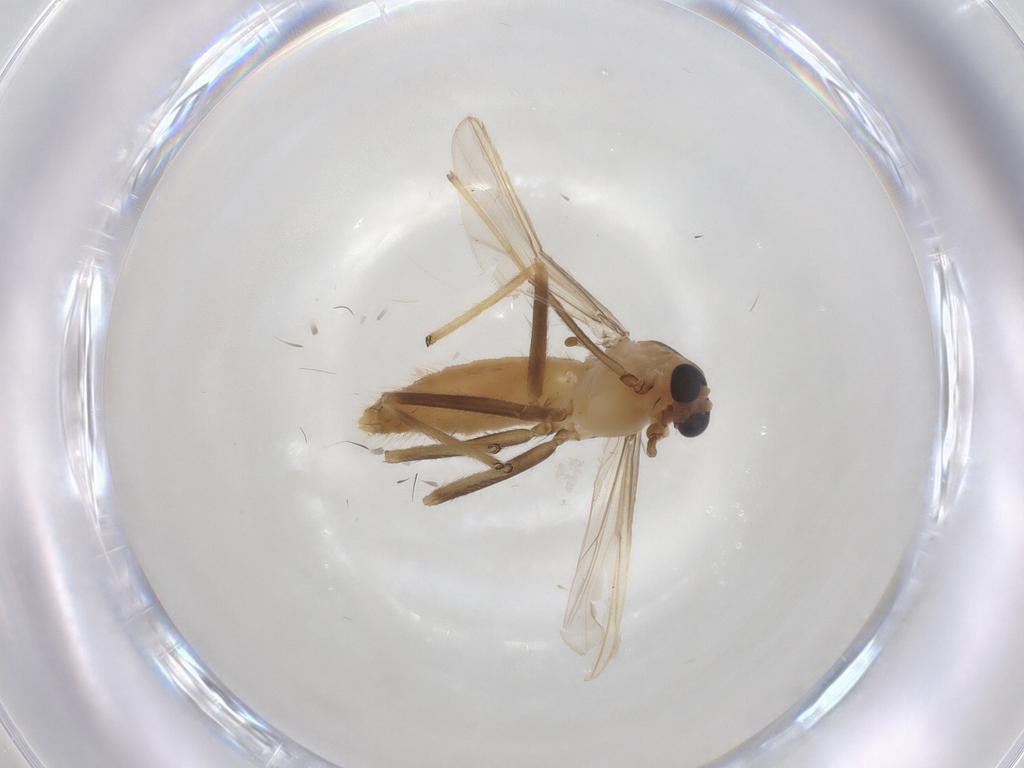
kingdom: Animalia
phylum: Arthropoda
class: Insecta
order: Diptera
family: Chironomidae
